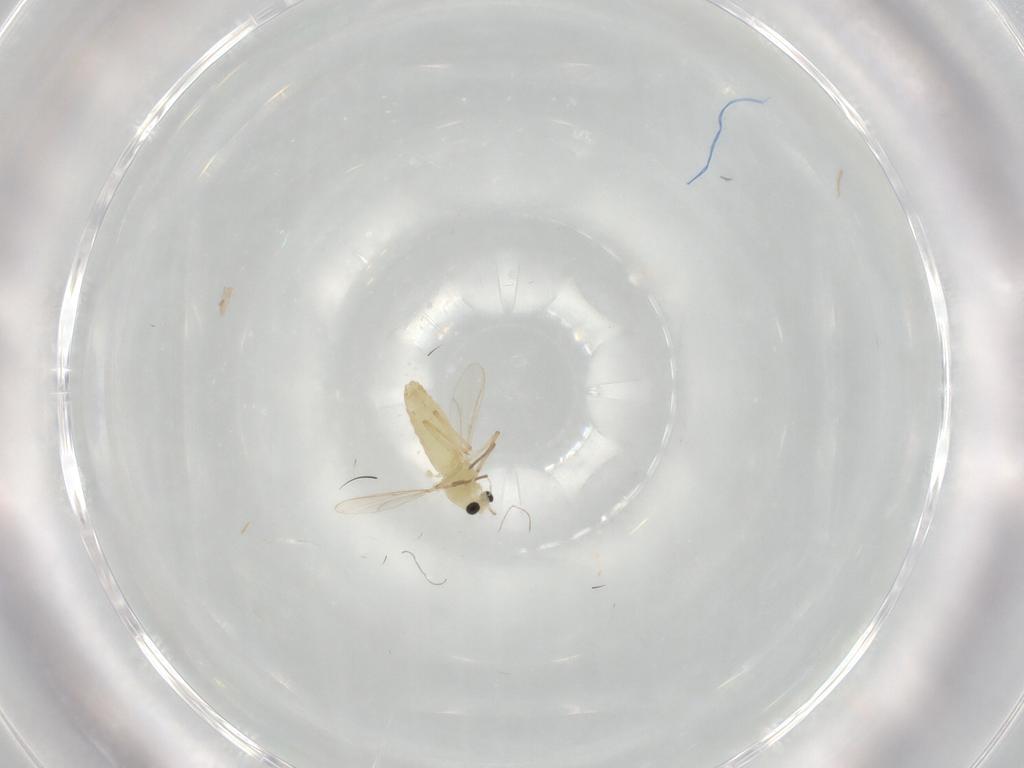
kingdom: Animalia
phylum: Arthropoda
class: Insecta
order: Diptera
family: Chironomidae
